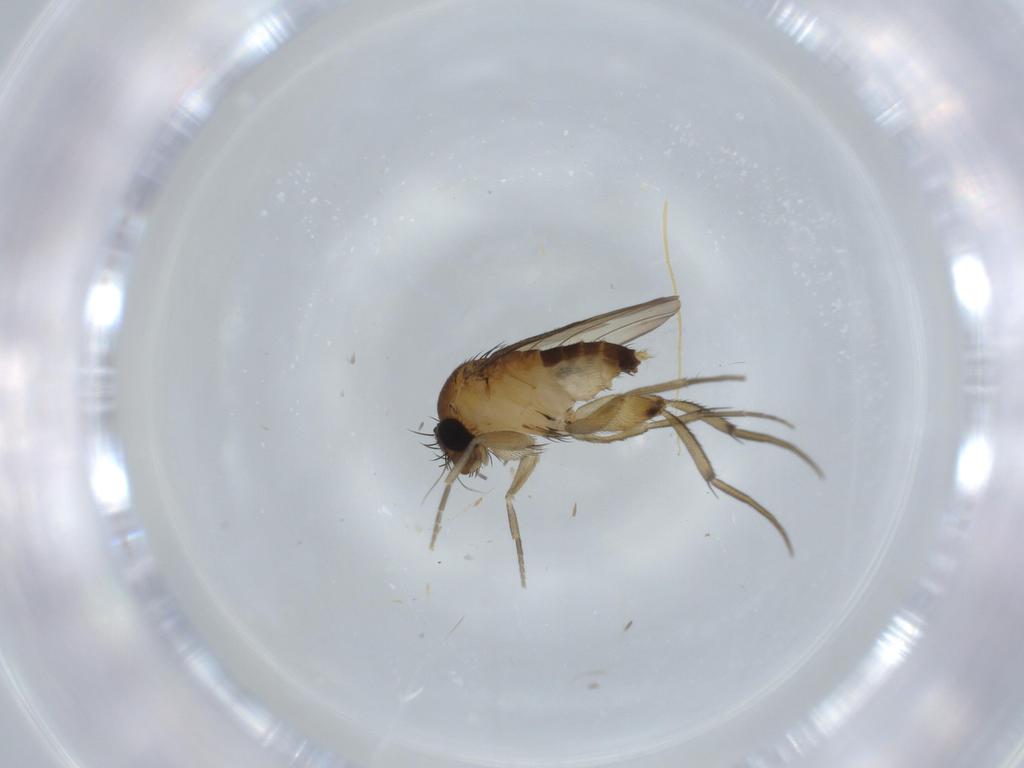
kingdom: Animalia
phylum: Arthropoda
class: Insecta
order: Diptera
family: Phoridae
